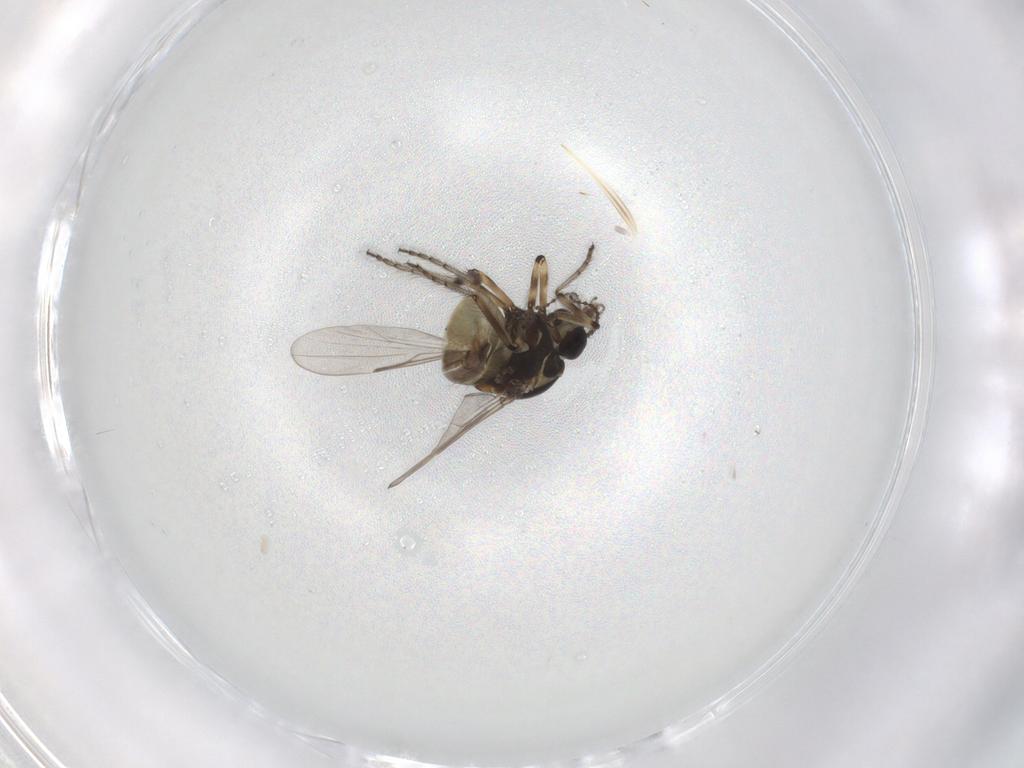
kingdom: Animalia
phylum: Arthropoda
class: Insecta
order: Diptera
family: Ceratopogonidae
